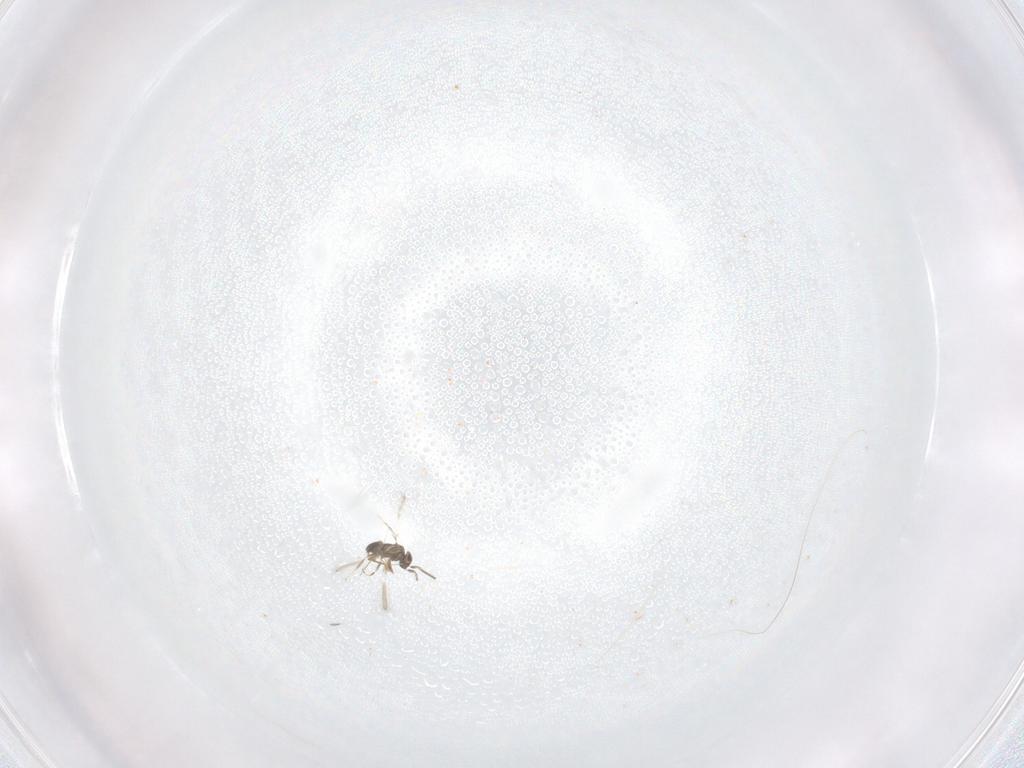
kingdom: Animalia
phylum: Arthropoda
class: Insecta
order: Hymenoptera
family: Mymaridae
